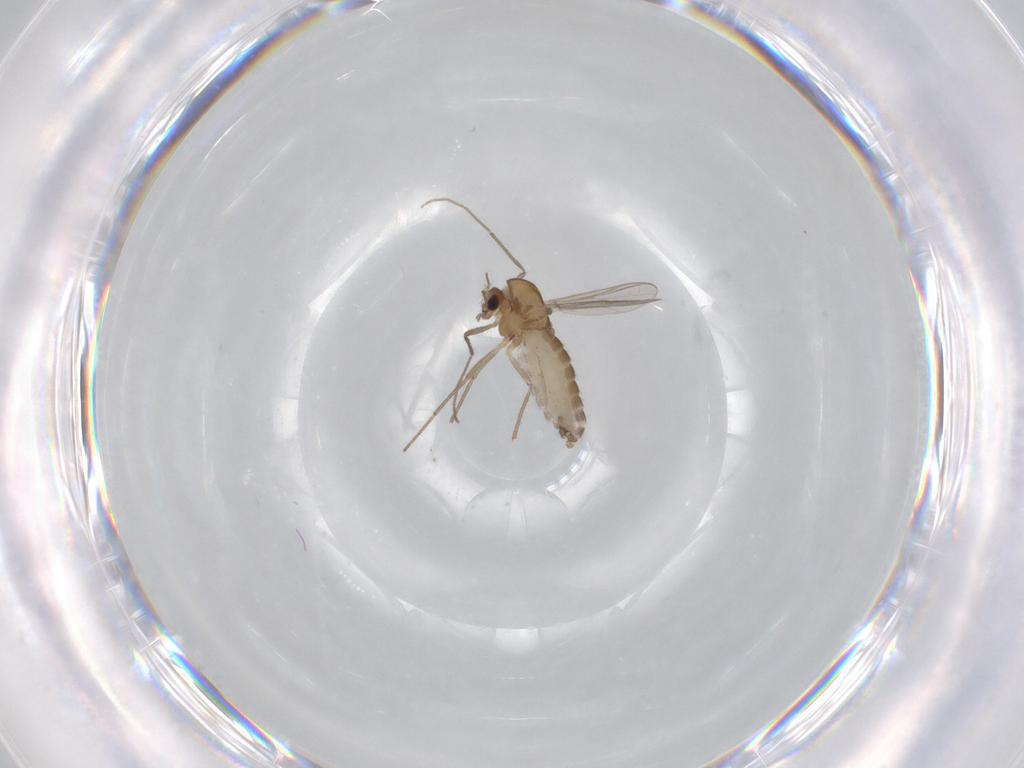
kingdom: Animalia
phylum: Arthropoda
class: Insecta
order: Diptera
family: Chironomidae
